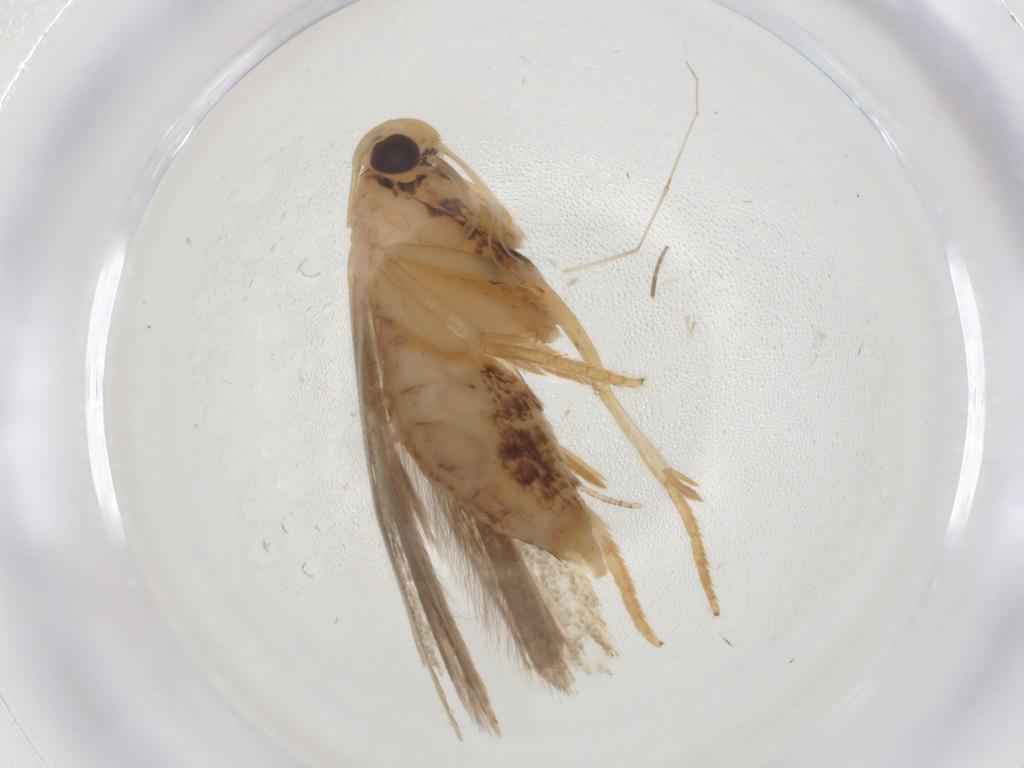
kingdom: Animalia
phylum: Arthropoda
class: Insecta
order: Lepidoptera
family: Gelechiidae
